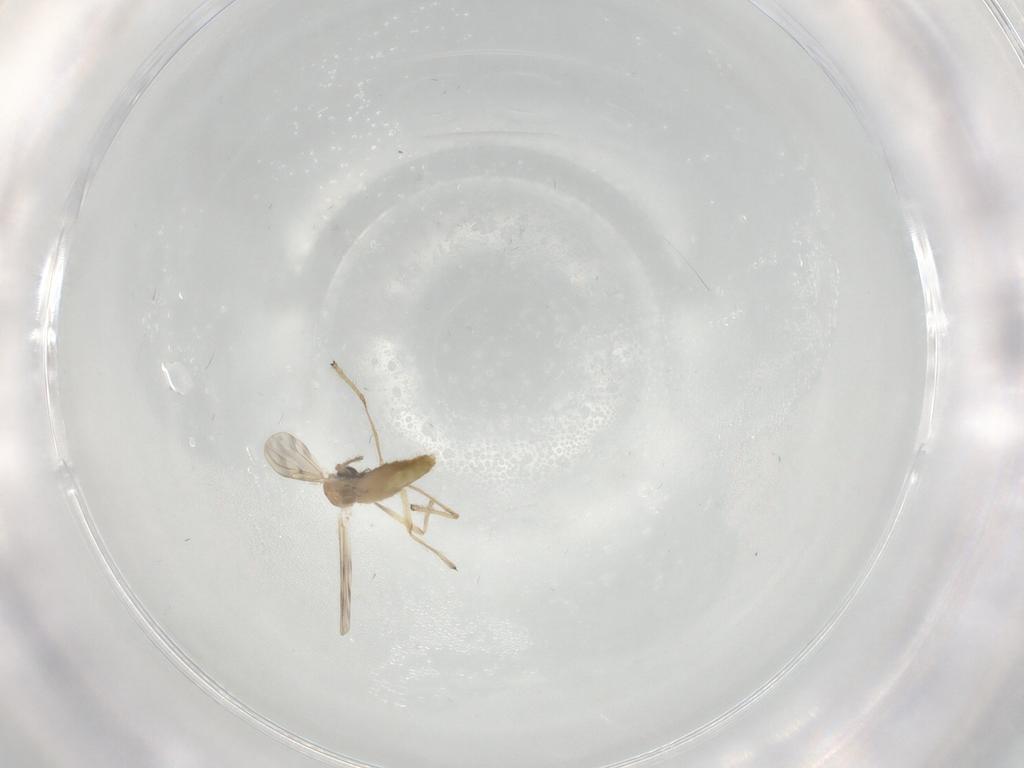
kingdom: Animalia
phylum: Arthropoda
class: Insecta
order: Diptera
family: Chironomidae
